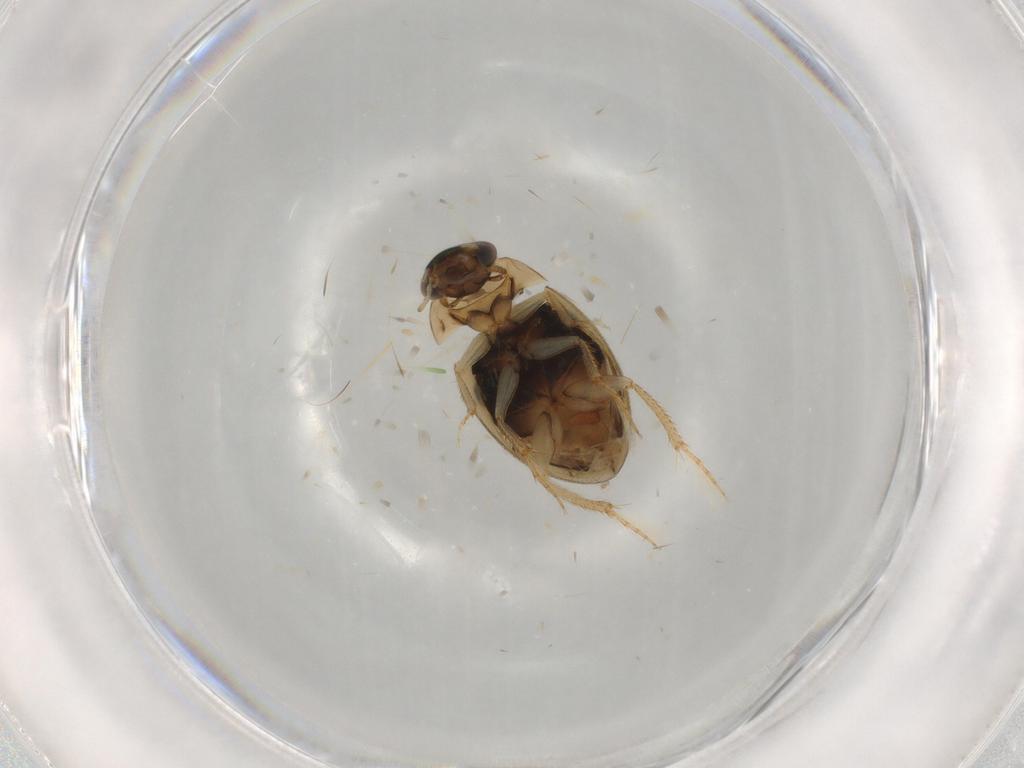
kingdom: Animalia
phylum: Arthropoda
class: Insecta
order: Coleoptera
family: Hydrophilidae
